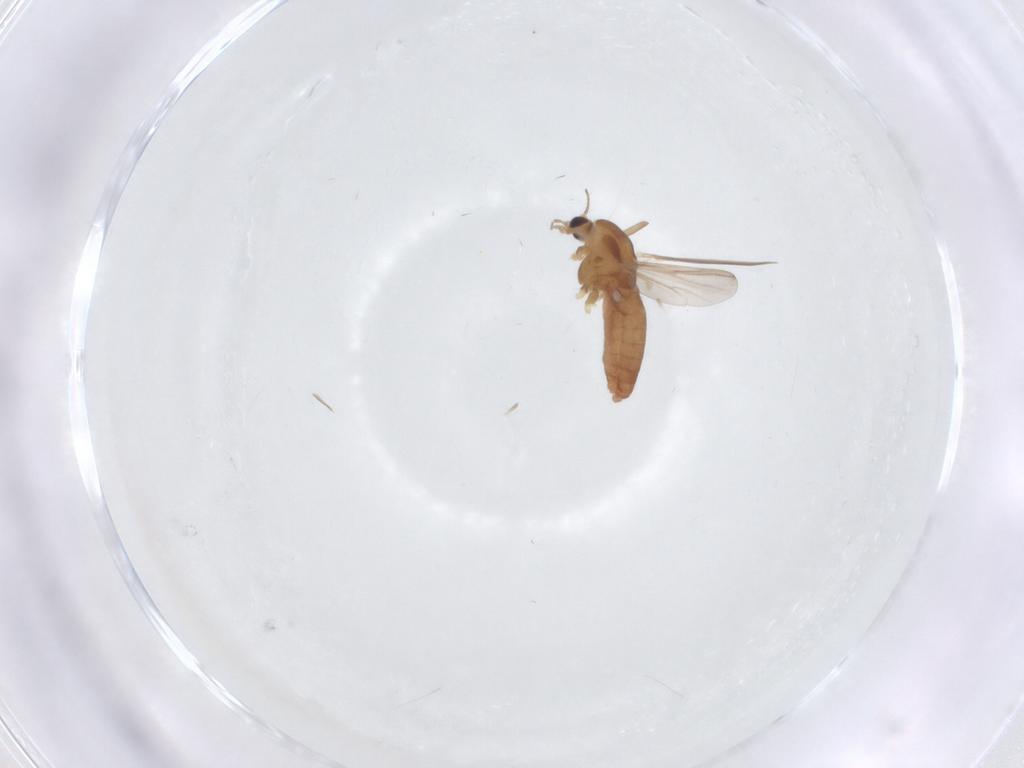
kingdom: Animalia
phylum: Arthropoda
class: Insecta
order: Diptera
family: Chironomidae
